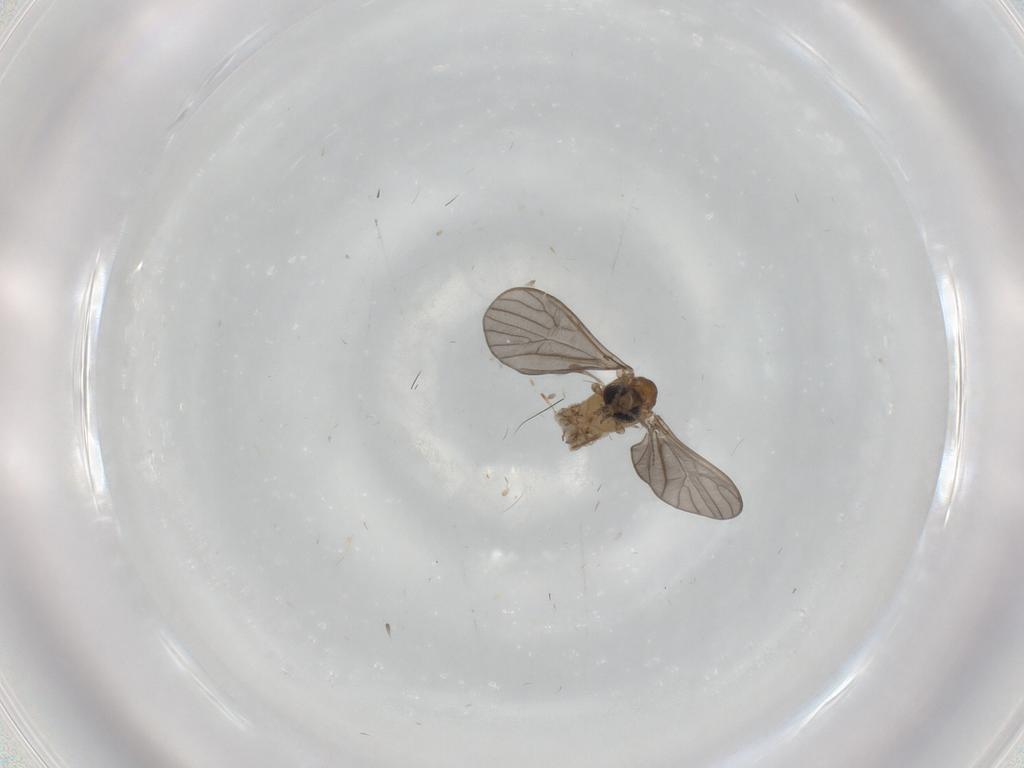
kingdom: Animalia
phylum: Arthropoda
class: Insecta
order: Diptera
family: Limoniidae
